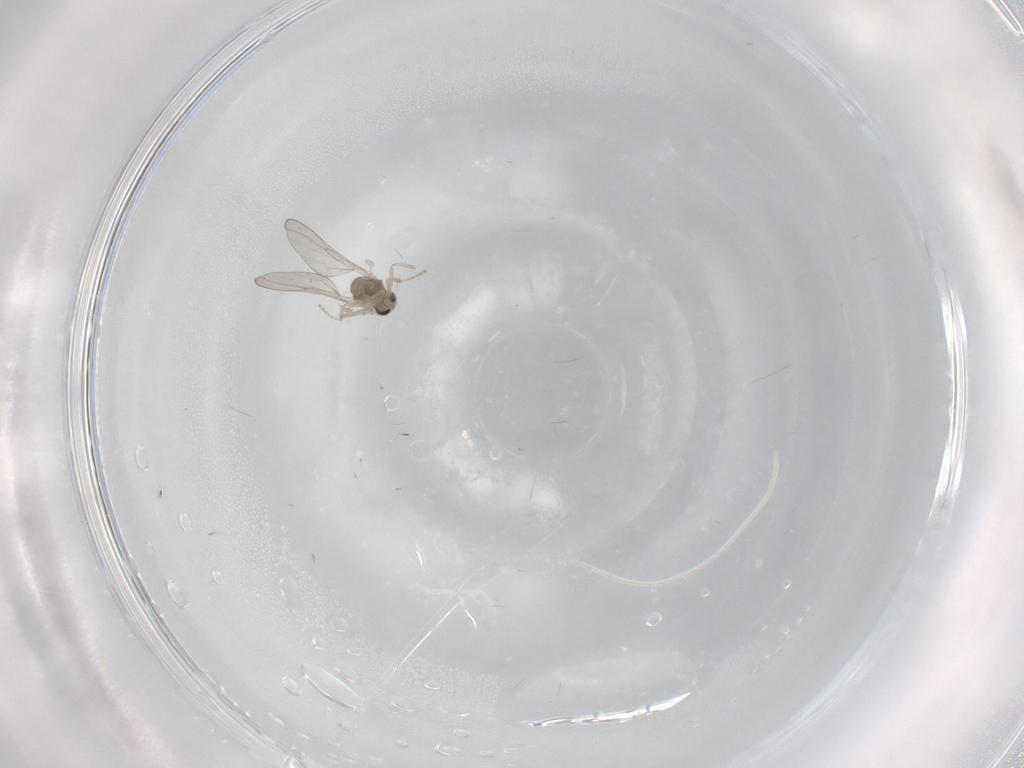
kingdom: Animalia
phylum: Arthropoda
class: Insecta
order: Diptera
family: Cecidomyiidae
